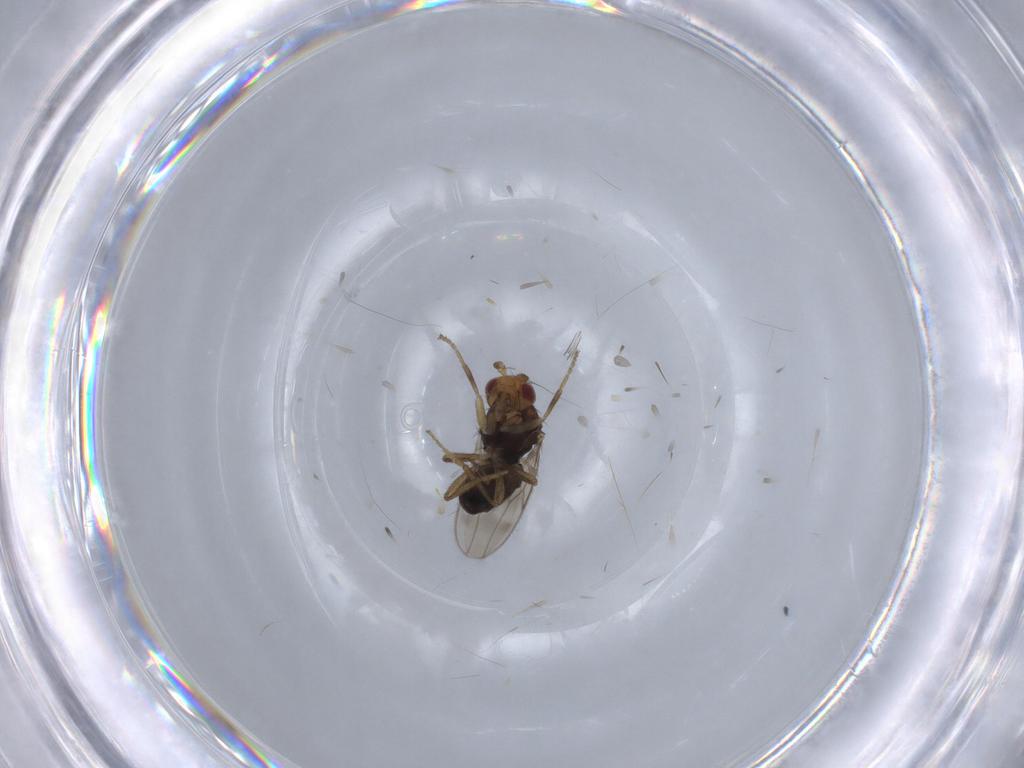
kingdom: Animalia
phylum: Arthropoda
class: Insecta
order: Diptera
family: Sphaeroceridae
